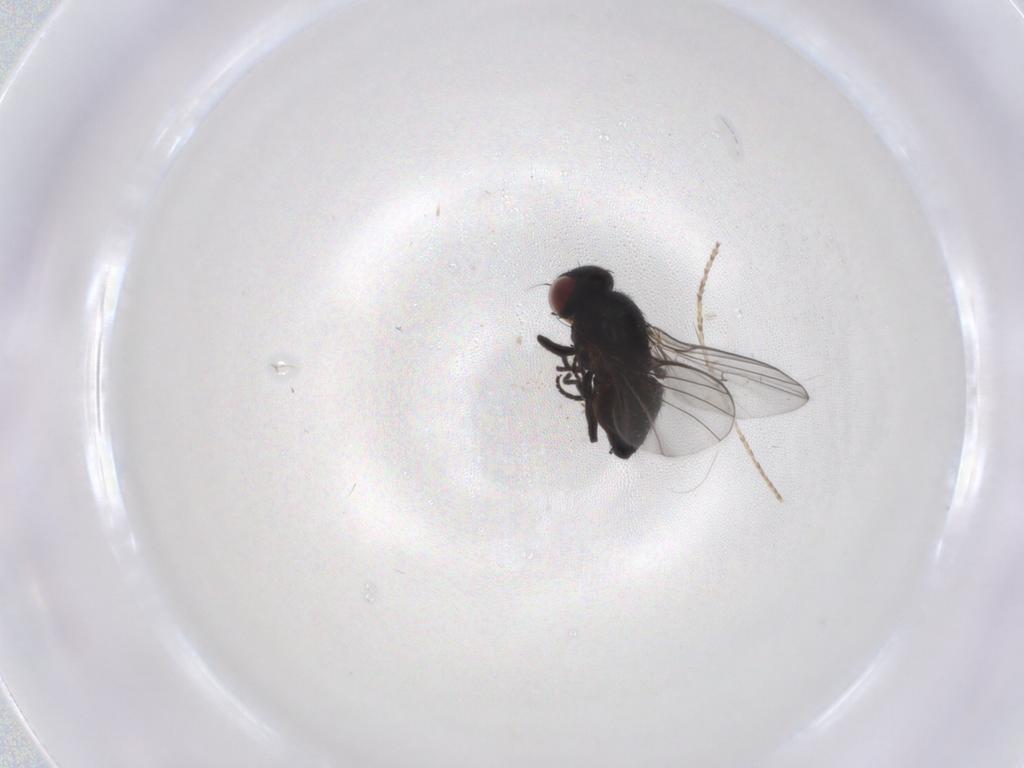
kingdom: Animalia
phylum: Arthropoda
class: Insecta
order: Diptera
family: Agromyzidae
